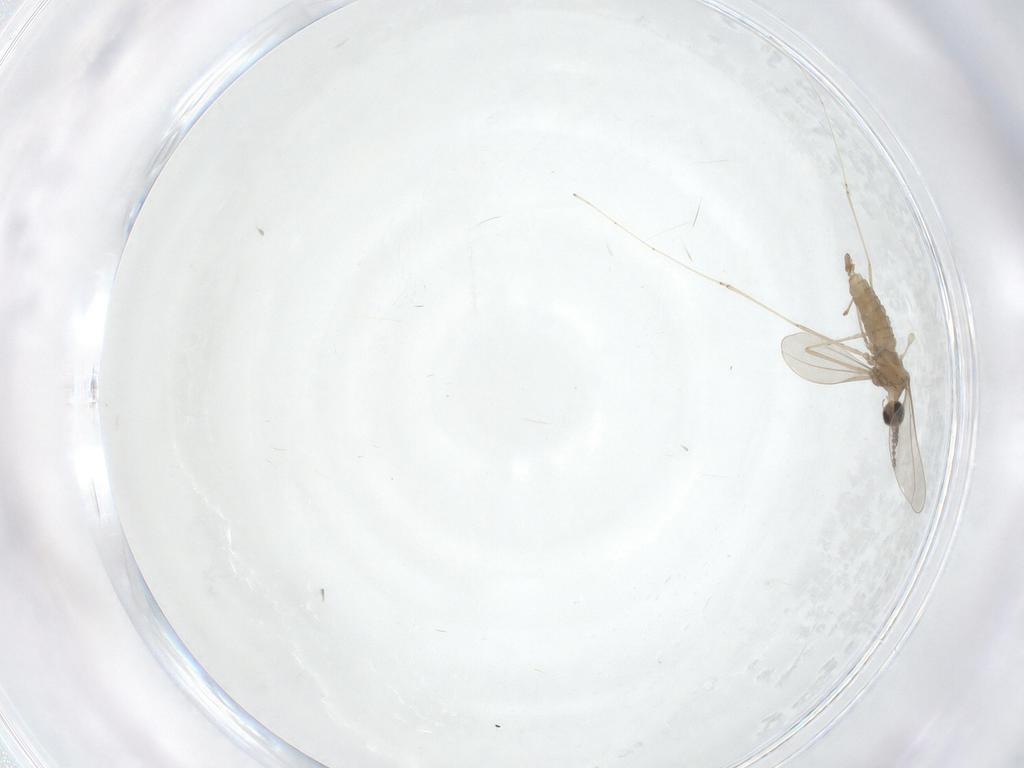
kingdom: Animalia
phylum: Arthropoda
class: Insecta
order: Diptera
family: Cecidomyiidae
